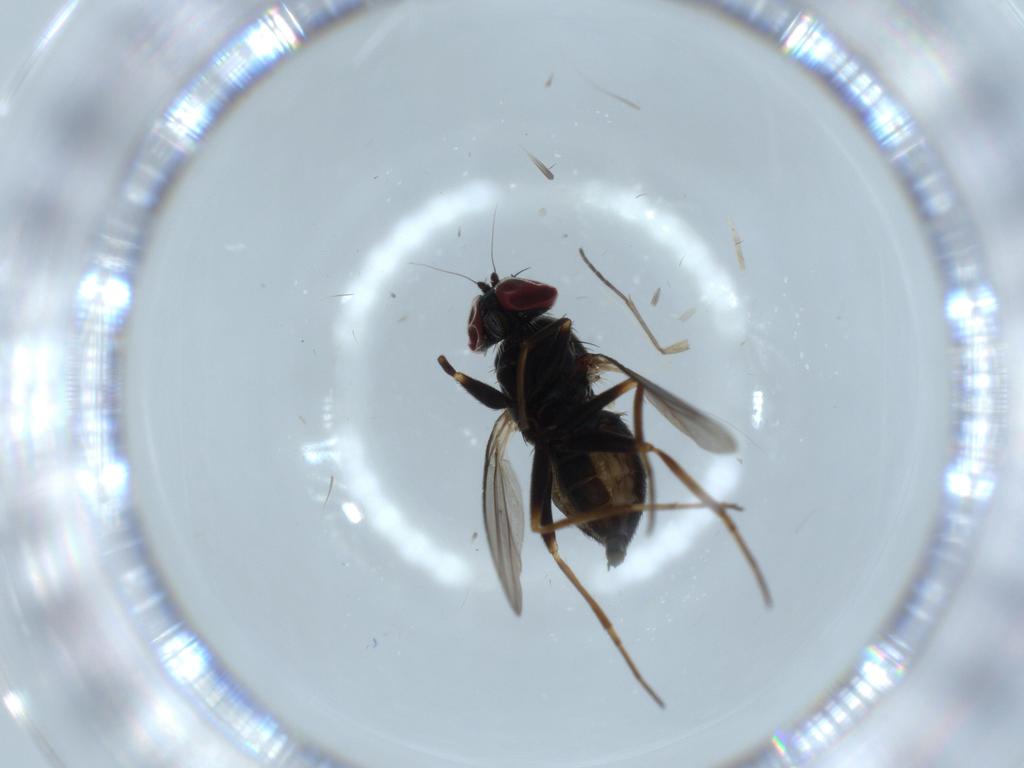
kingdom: Animalia
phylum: Arthropoda
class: Insecta
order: Diptera
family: Dolichopodidae
